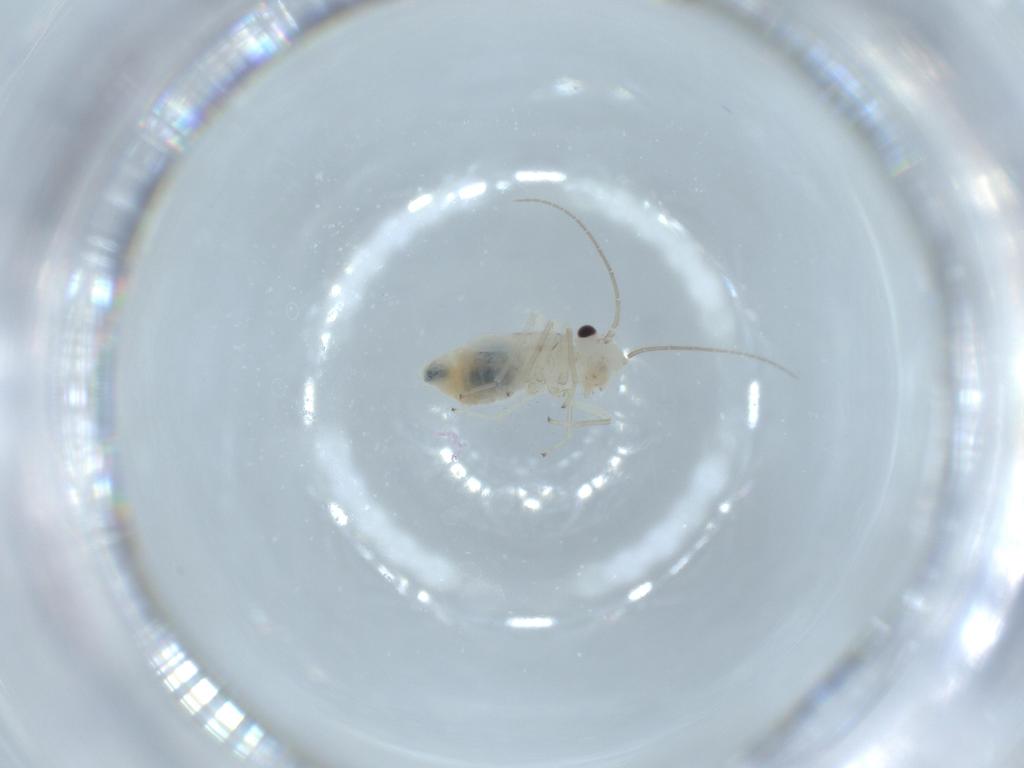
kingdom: Animalia
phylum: Arthropoda
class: Insecta
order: Psocodea
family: Caeciliusidae
